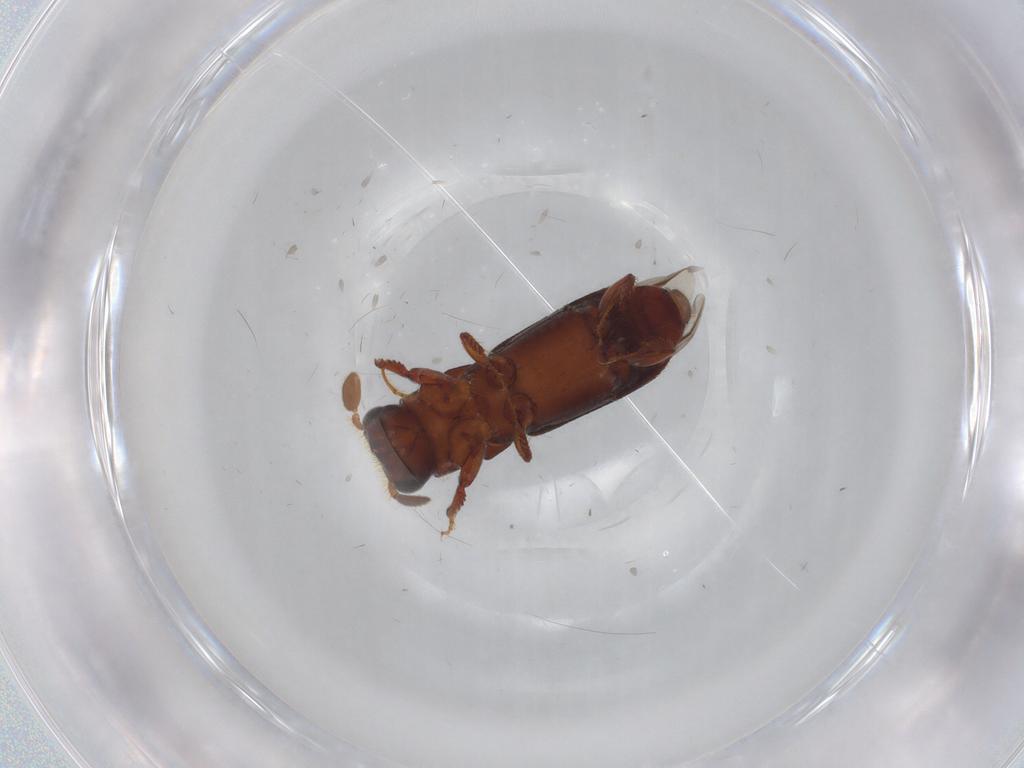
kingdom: Animalia
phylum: Arthropoda
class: Insecta
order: Coleoptera
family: Curculionidae
